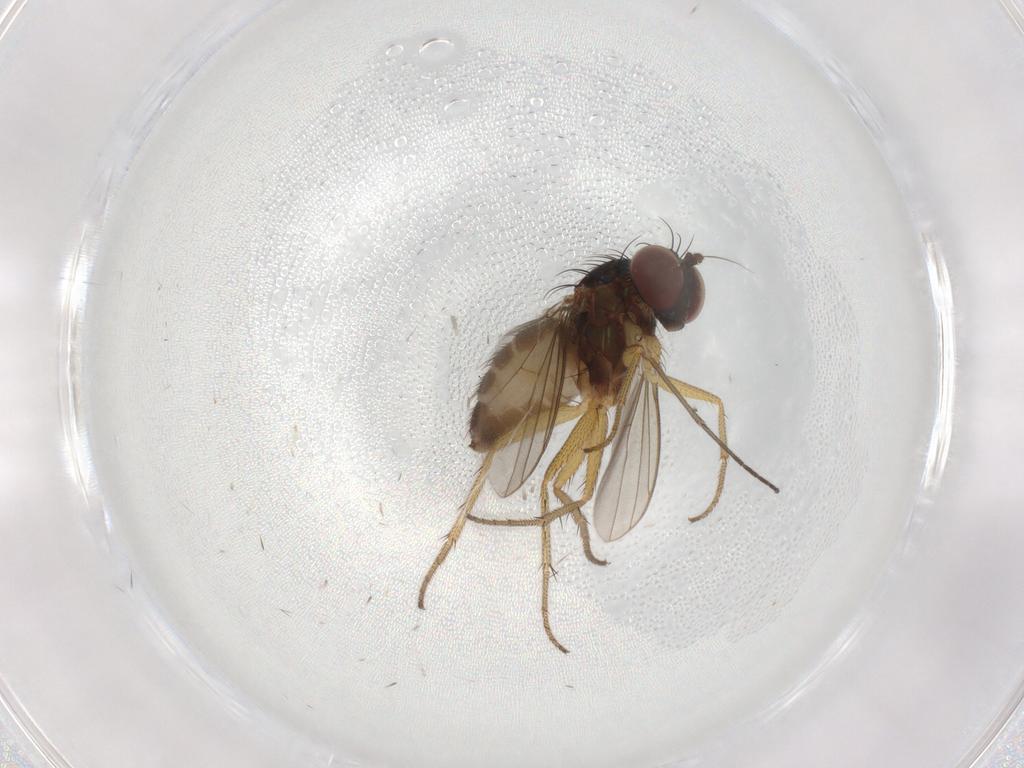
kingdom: Animalia
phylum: Arthropoda
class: Insecta
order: Diptera
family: Sciaridae
